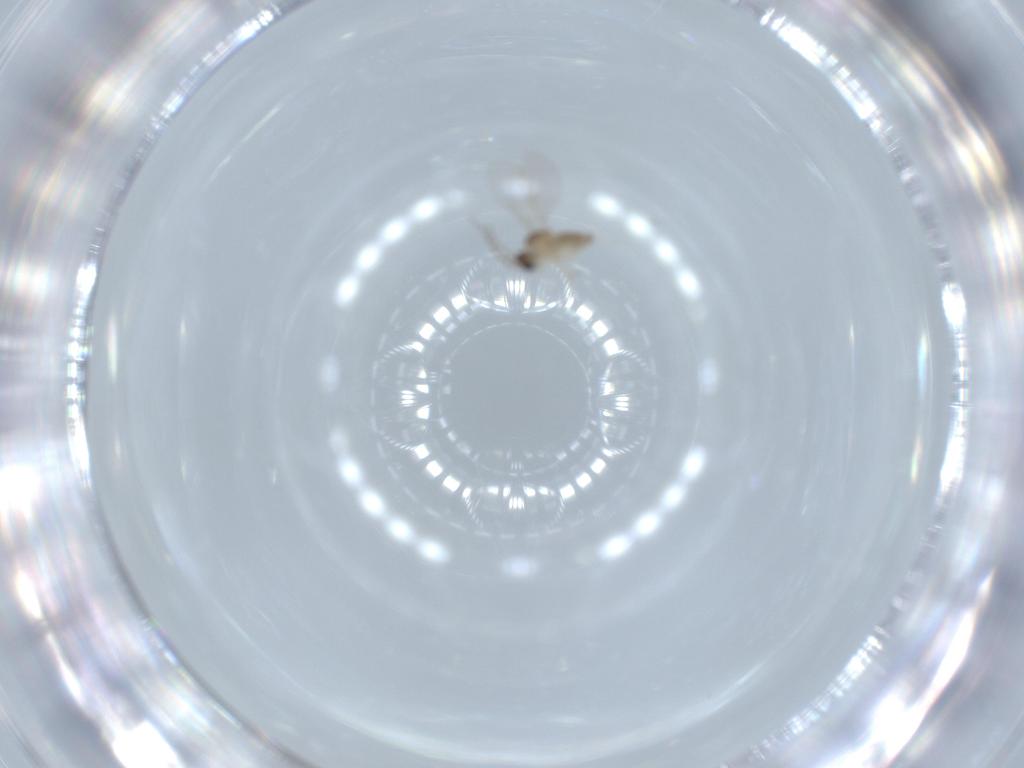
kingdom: Animalia
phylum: Arthropoda
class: Insecta
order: Diptera
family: Cecidomyiidae
